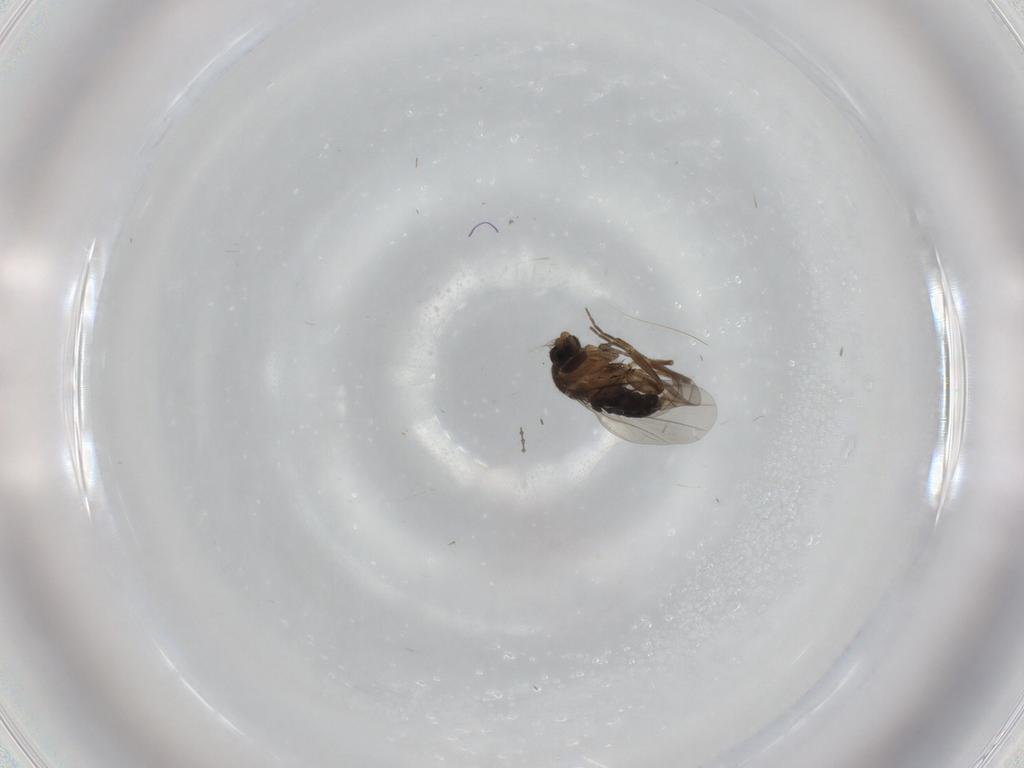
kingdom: Animalia
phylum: Arthropoda
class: Insecta
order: Diptera
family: Phoridae
